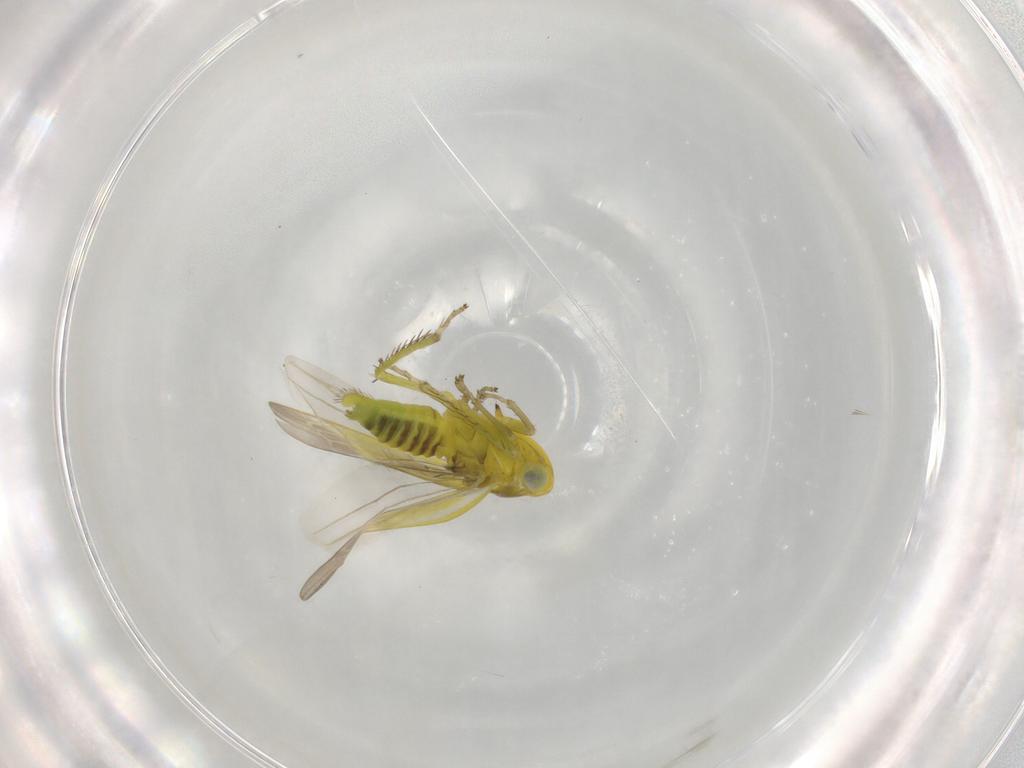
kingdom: Animalia
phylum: Arthropoda
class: Insecta
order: Hemiptera
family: Cicadellidae
